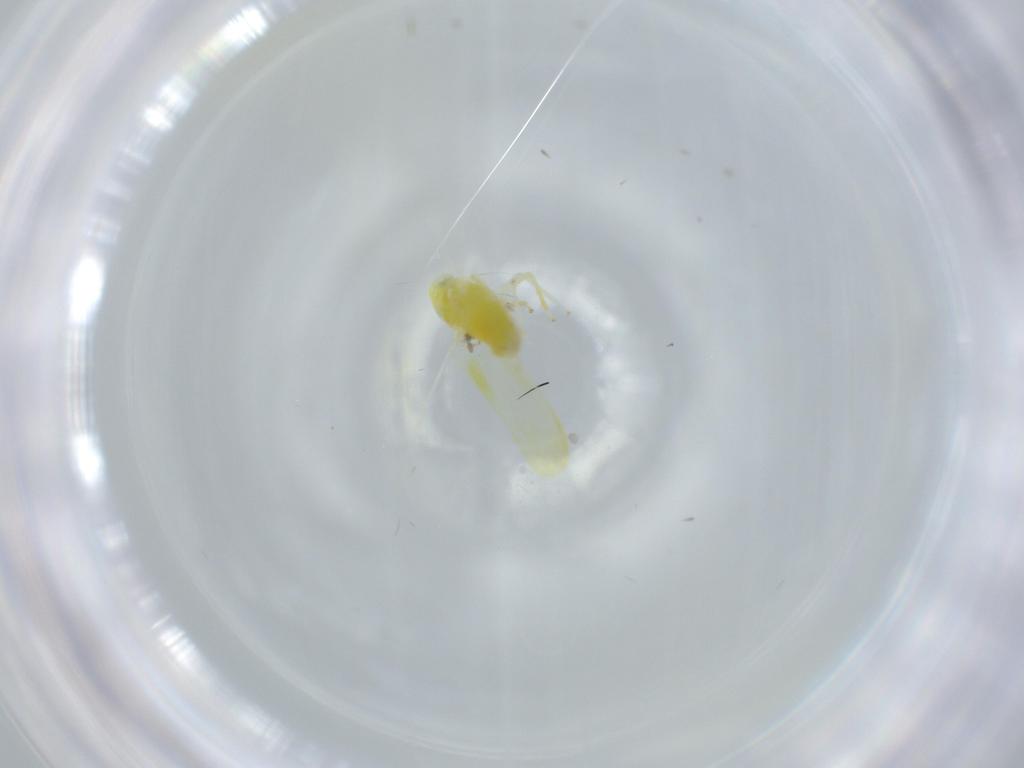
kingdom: Animalia
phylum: Arthropoda
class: Insecta
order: Hemiptera
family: Cicadellidae
